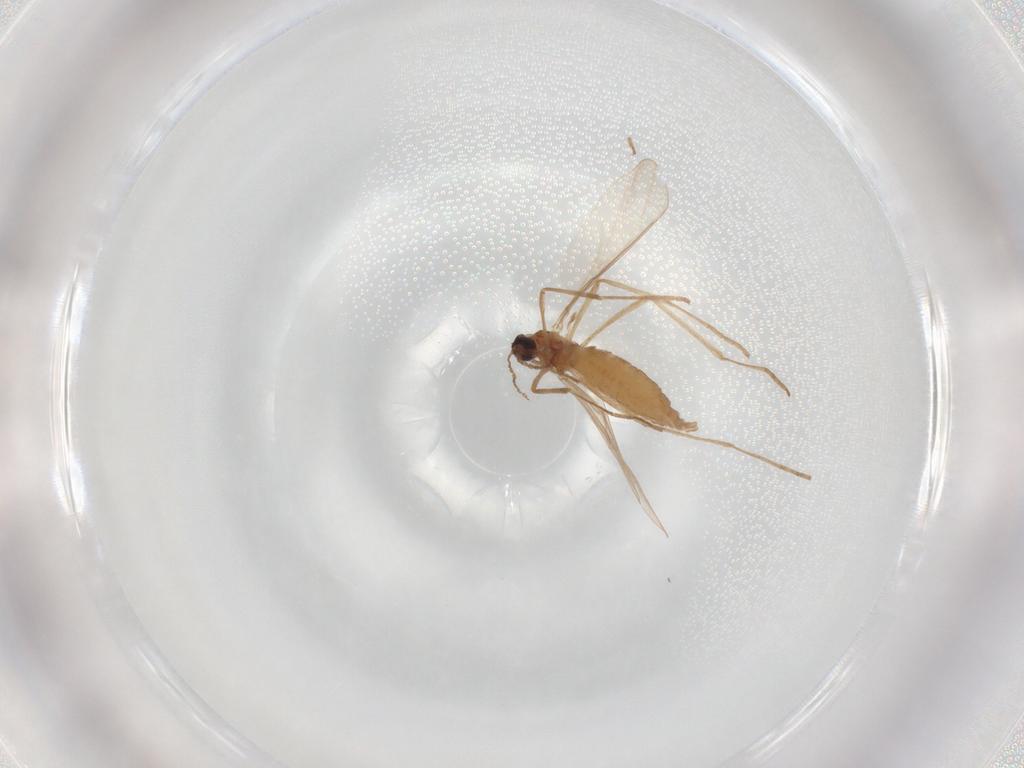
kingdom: Animalia
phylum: Arthropoda
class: Insecta
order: Diptera
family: Cecidomyiidae
